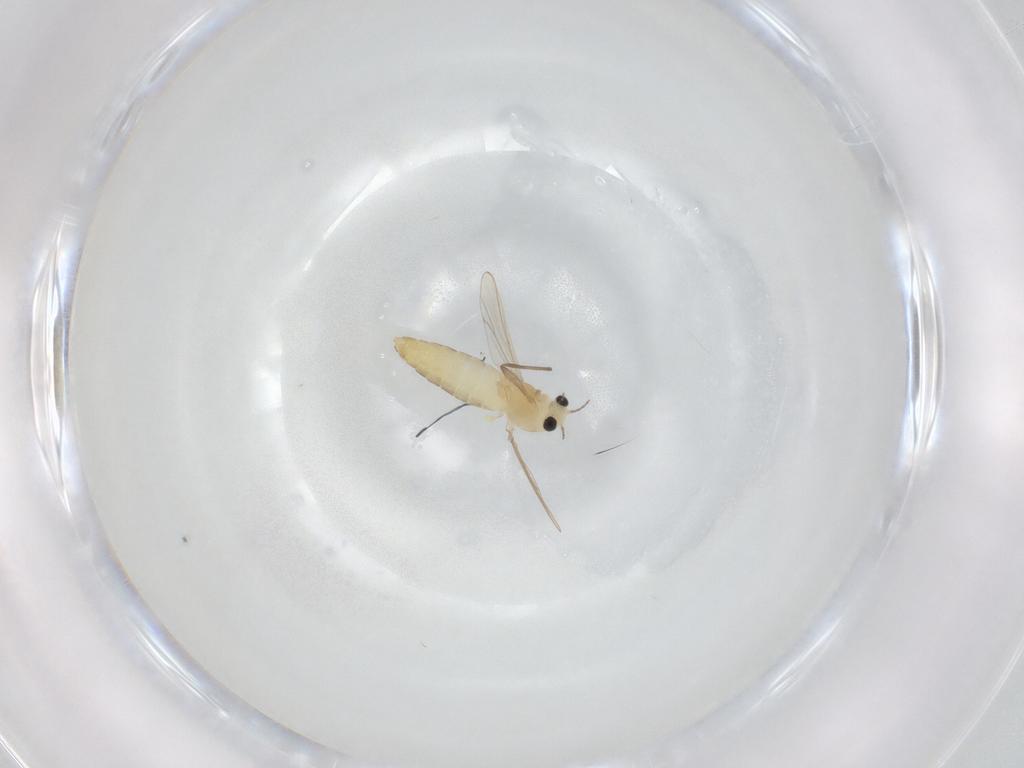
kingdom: Animalia
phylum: Arthropoda
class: Insecta
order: Diptera
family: Chironomidae
